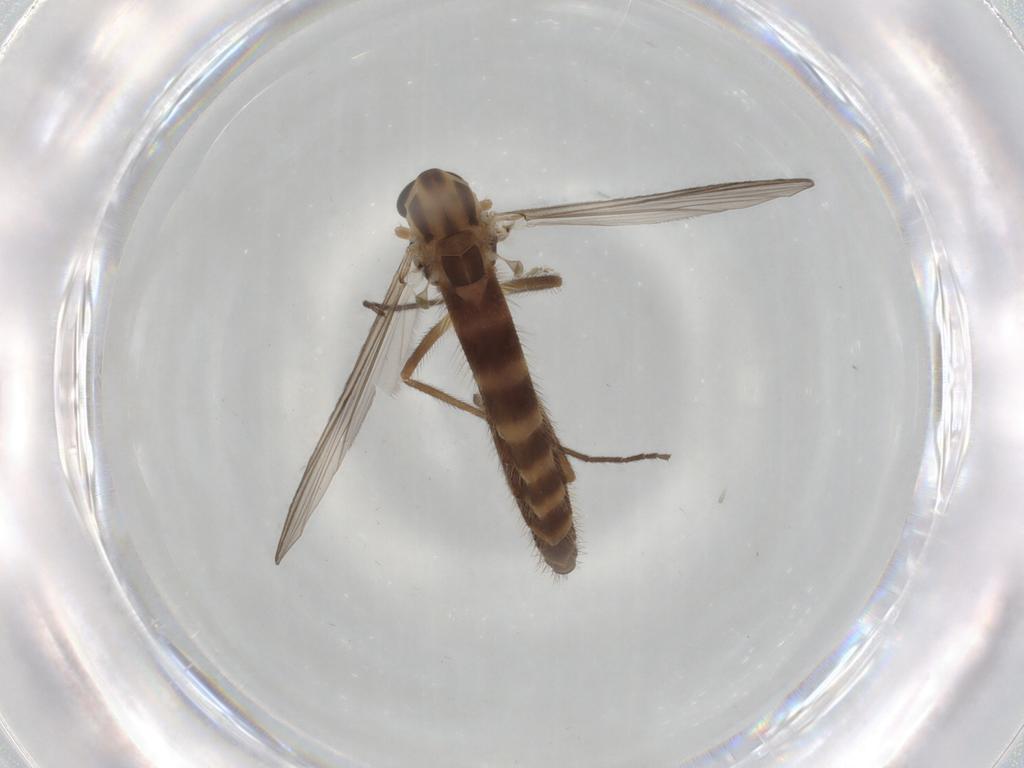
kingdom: Animalia
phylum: Arthropoda
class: Insecta
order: Diptera
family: Chironomidae
